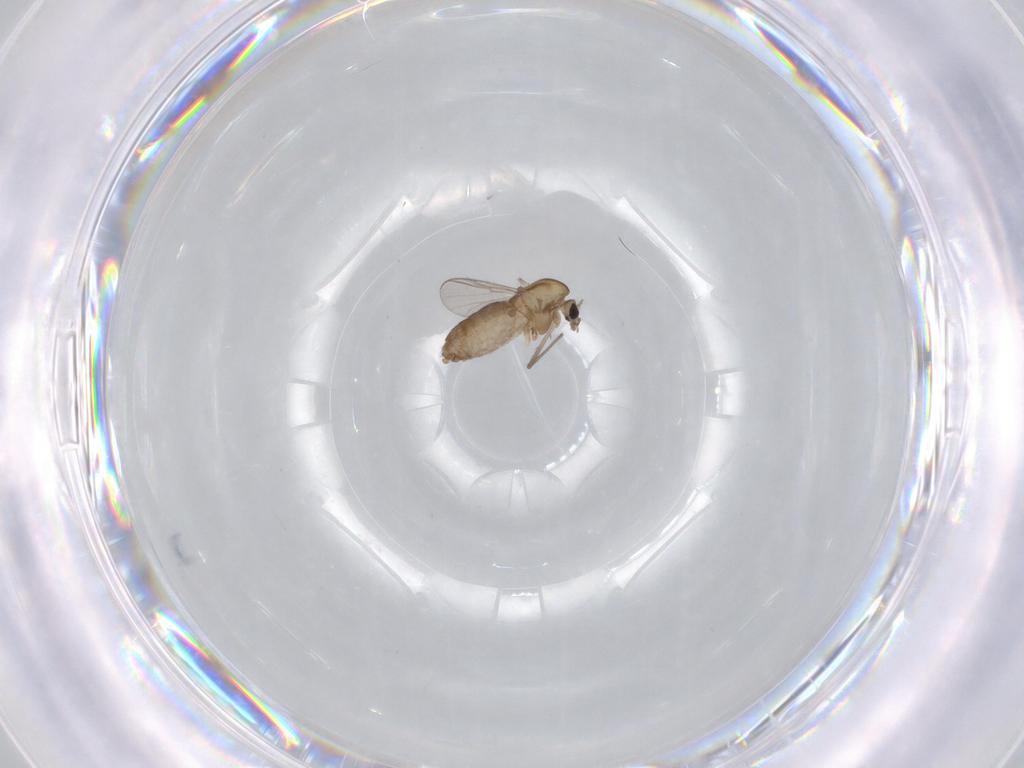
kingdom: Animalia
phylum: Arthropoda
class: Insecta
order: Diptera
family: Chironomidae
